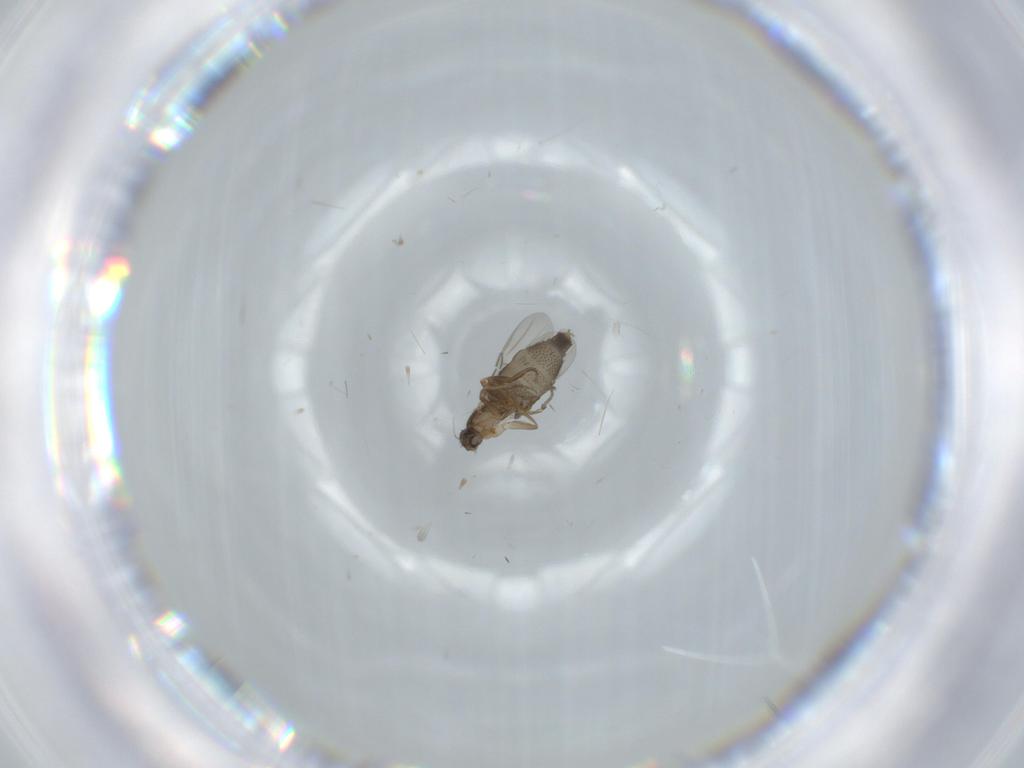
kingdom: Animalia
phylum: Arthropoda
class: Insecta
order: Diptera
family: Phoridae
